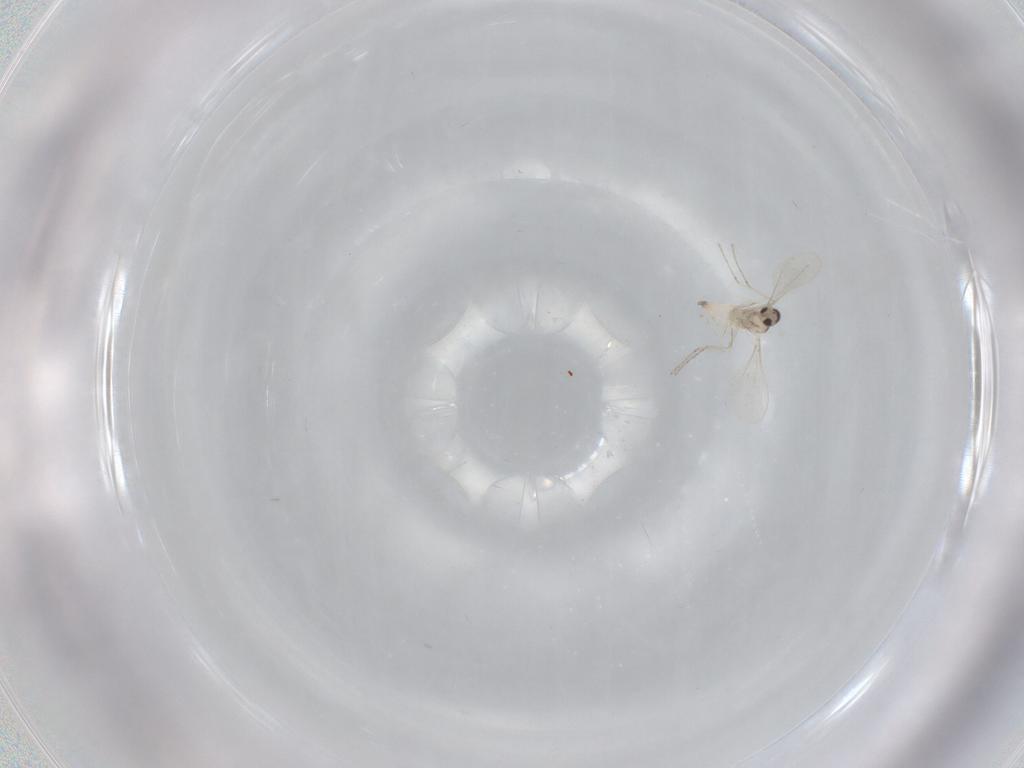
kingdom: Animalia
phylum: Arthropoda
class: Insecta
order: Diptera
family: Cecidomyiidae
